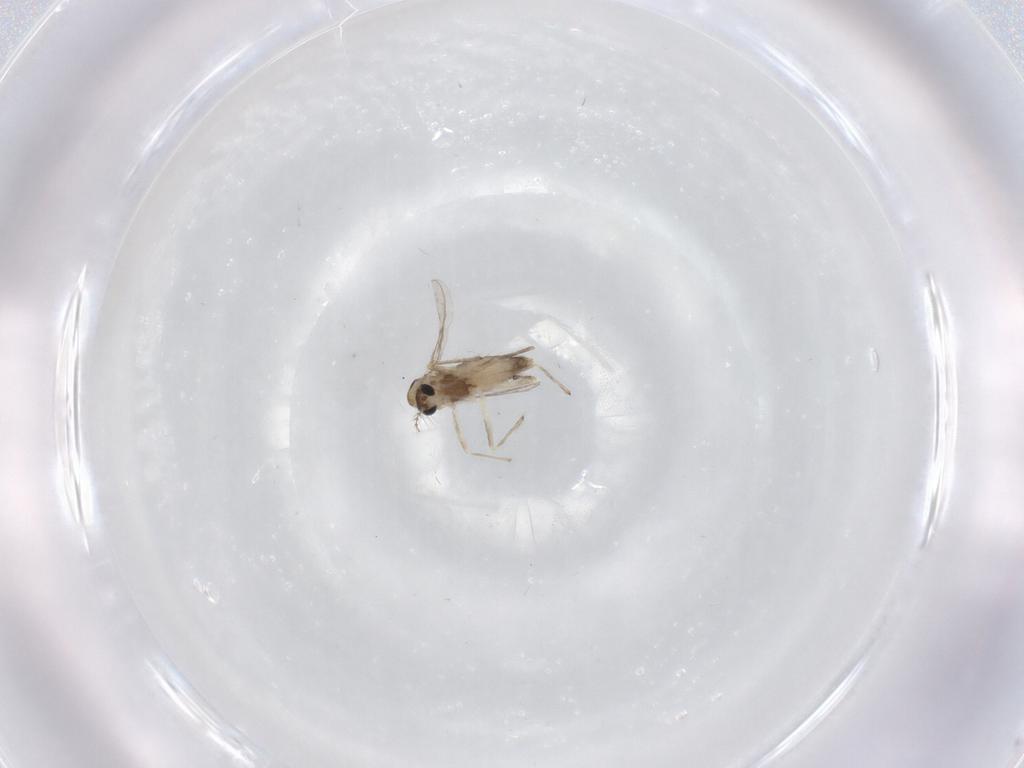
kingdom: Animalia
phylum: Arthropoda
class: Insecta
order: Diptera
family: Chironomidae
